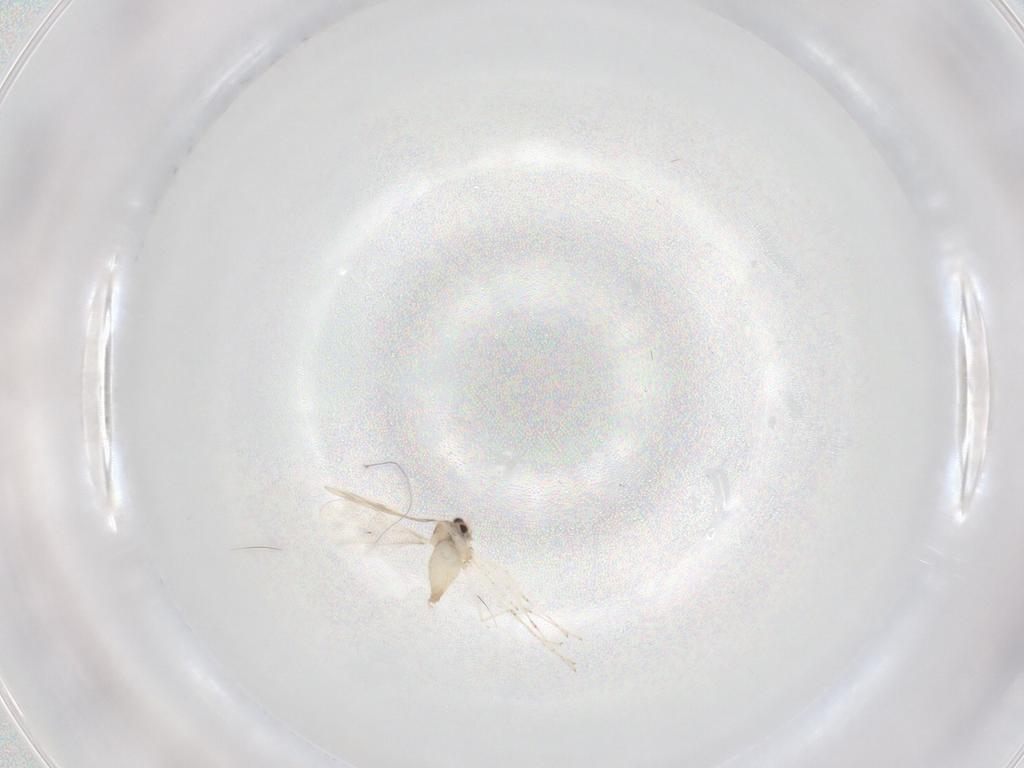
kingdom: Animalia
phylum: Arthropoda
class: Insecta
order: Diptera
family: Cecidomyiidae
